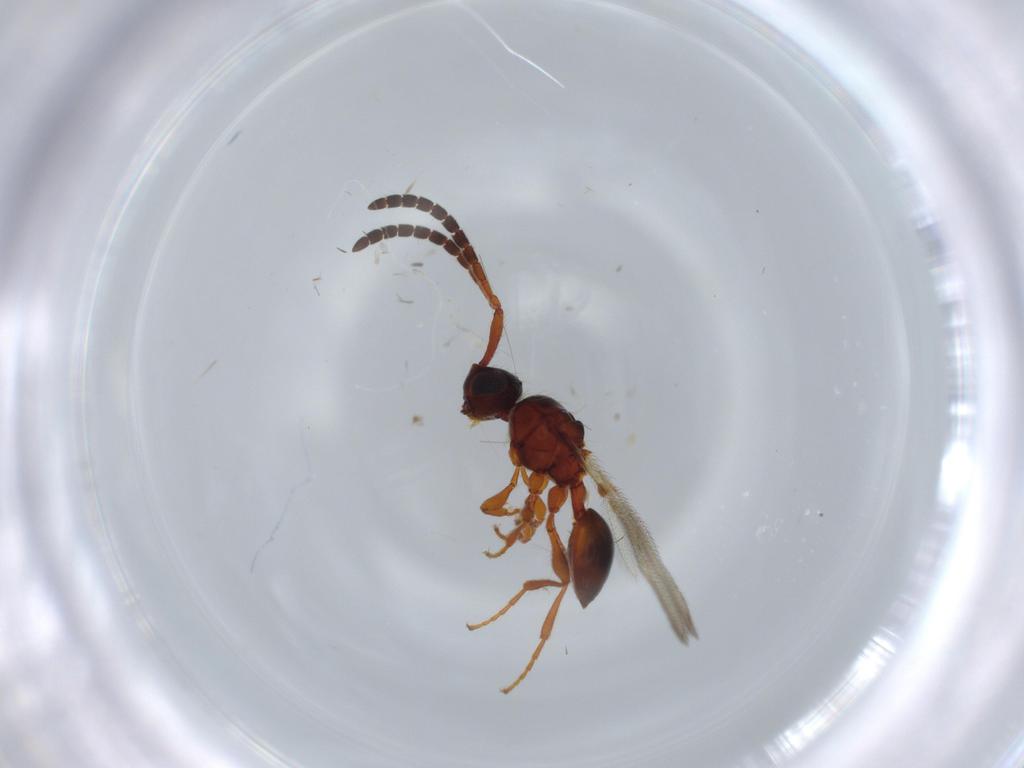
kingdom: Animalia
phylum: Arthropoda
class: Insecta
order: Hymenoptera
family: Diapriidae
